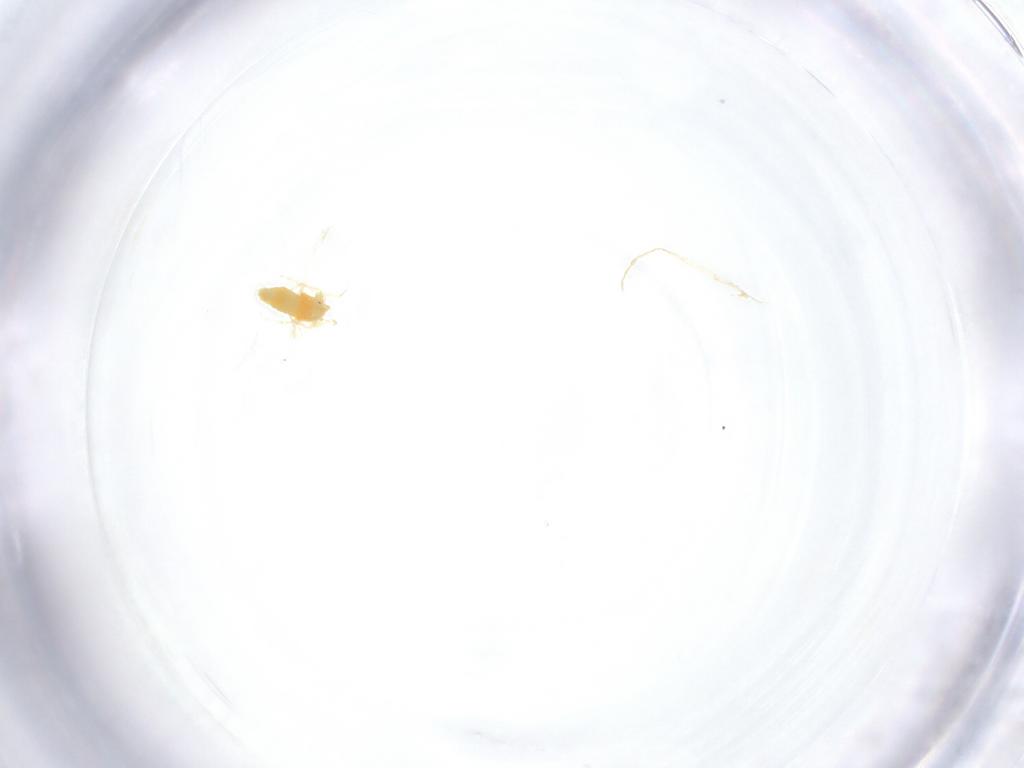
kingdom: Animalia
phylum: Arthropoda
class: Insecta
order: Hemiptera
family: Aleyrodidae
